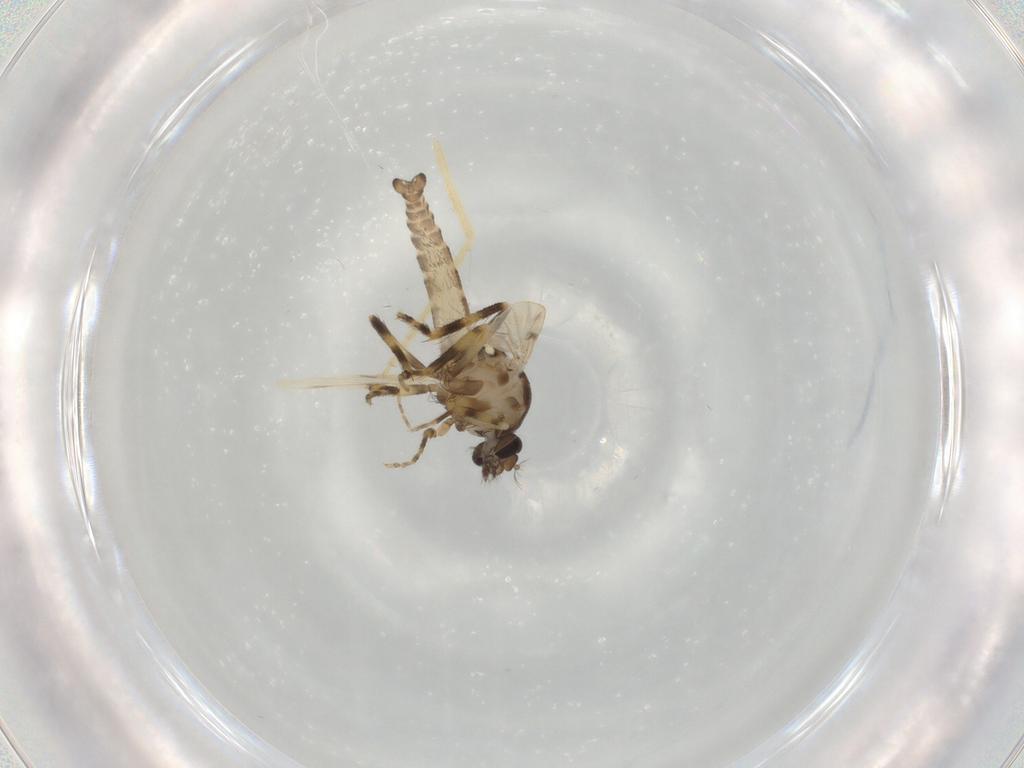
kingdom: Animalia
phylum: Arthropoda
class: Insecta
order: Diptera
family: Ceratopogonidae
